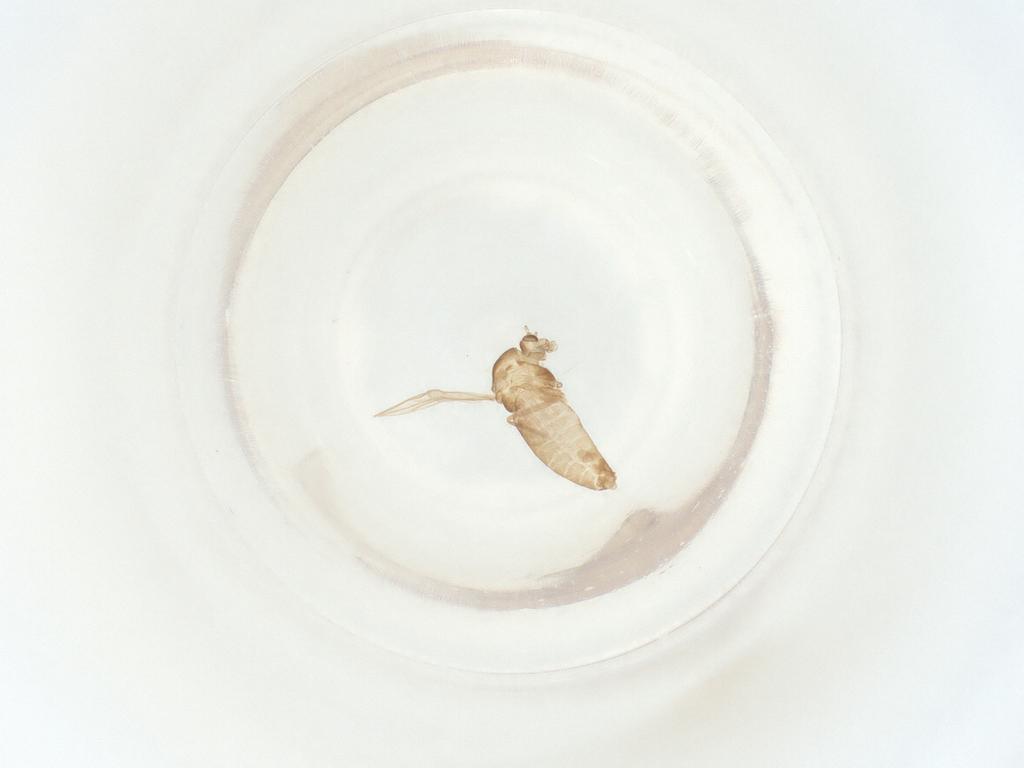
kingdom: Animalia
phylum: Arthropoda
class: Insecta
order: Diptera
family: Chironomidae
